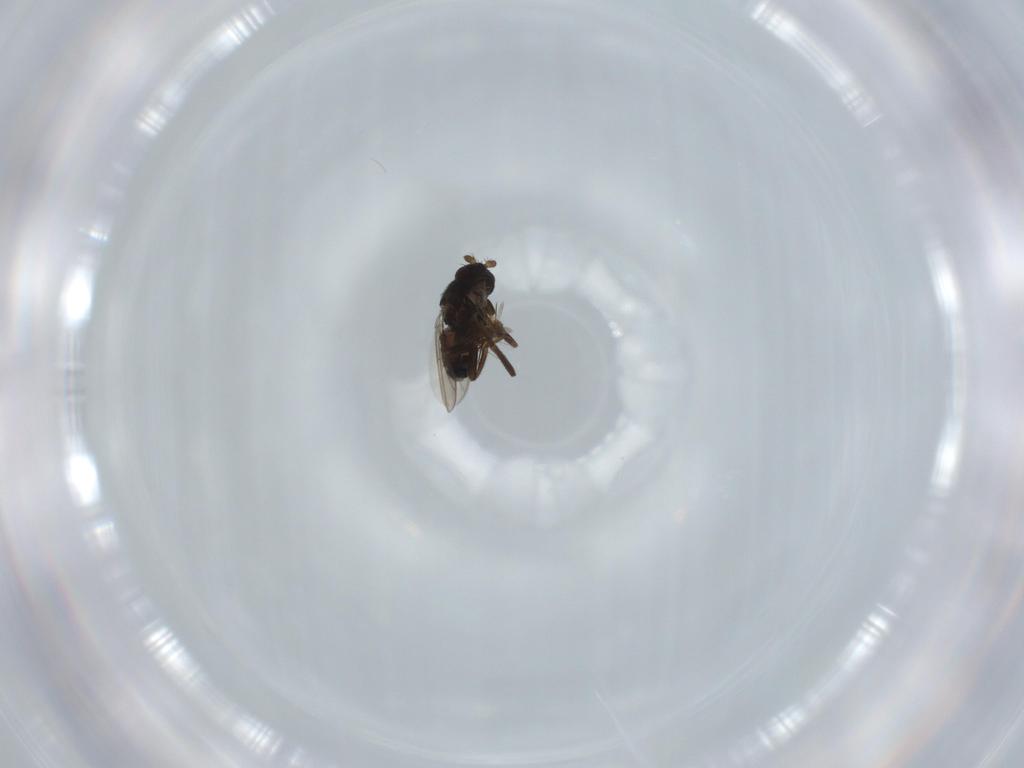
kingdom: Animalia
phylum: Arthropoda
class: Insecta
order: Diptera
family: Sphaeroceridae
